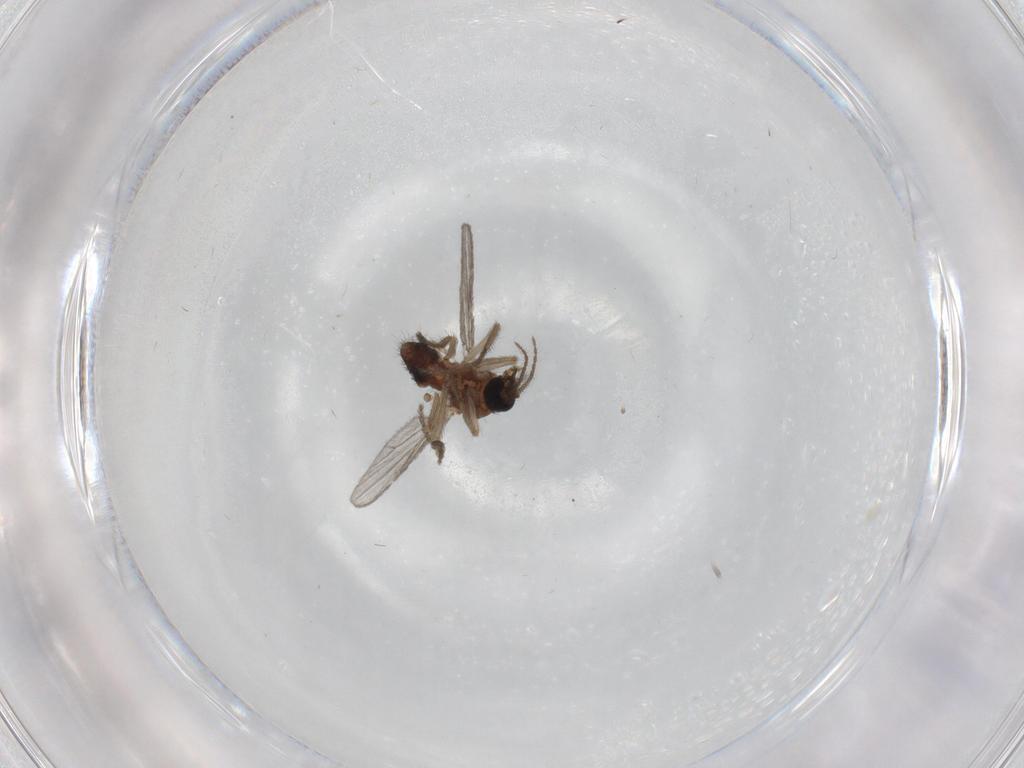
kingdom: Animalia
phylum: Arthropoda
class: Insecta
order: Diptera
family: Ceratopogonidae
